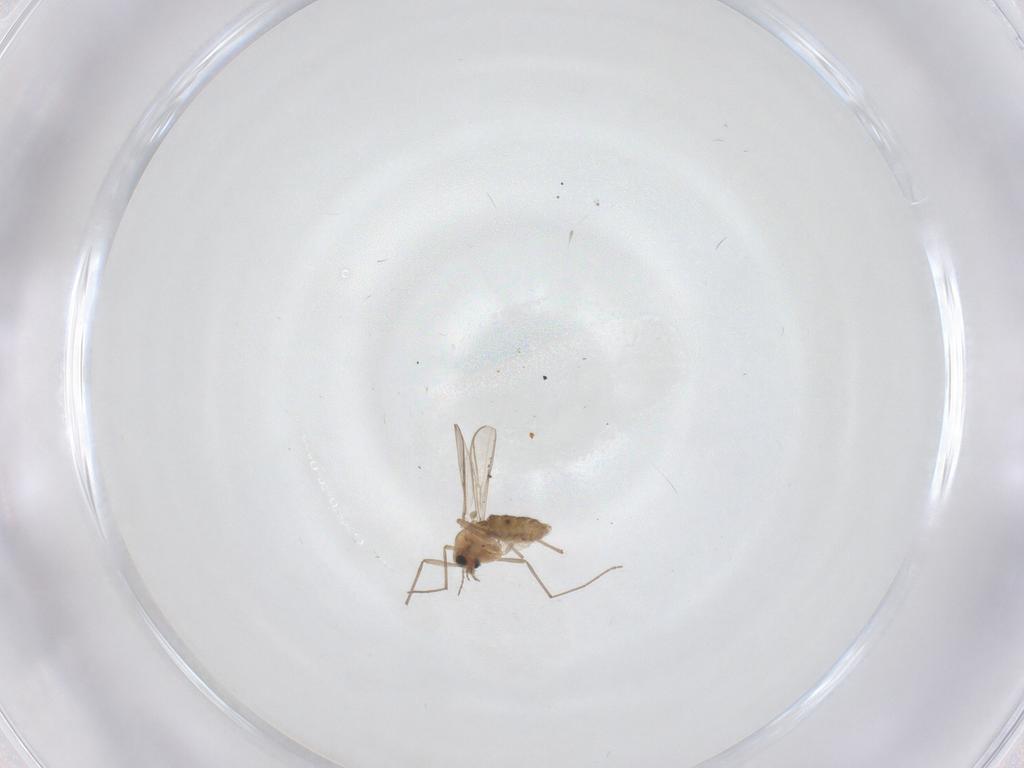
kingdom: Animalia
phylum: Arthropoda
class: Insecta
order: Diptera
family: Chironomidae
